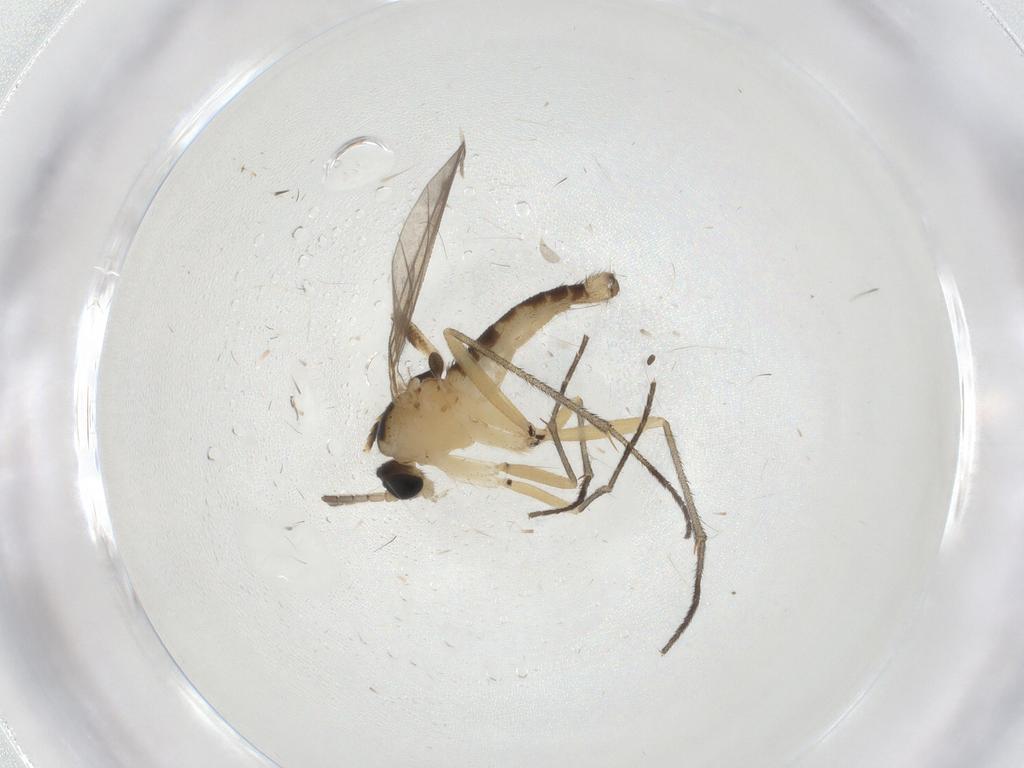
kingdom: Animalia
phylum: Arthropoda
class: Insecta
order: Diptera
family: Sciaridae
